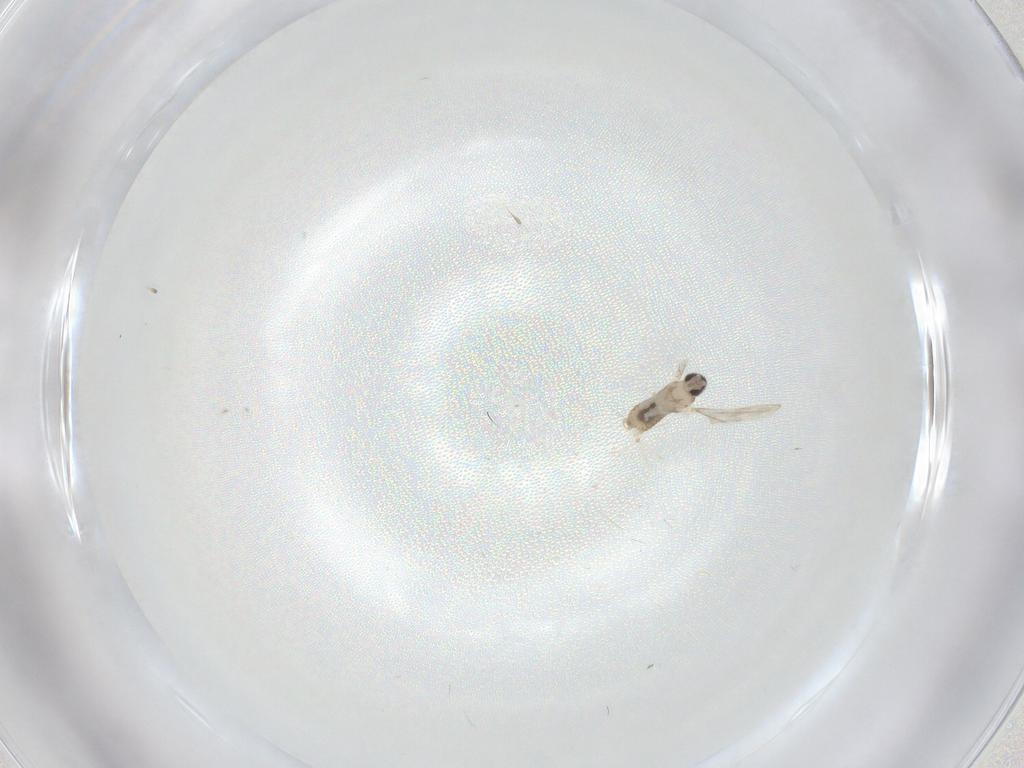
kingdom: Animalia
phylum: Arthropoda
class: Insecta
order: Diptera
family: Cecidomyiidae
